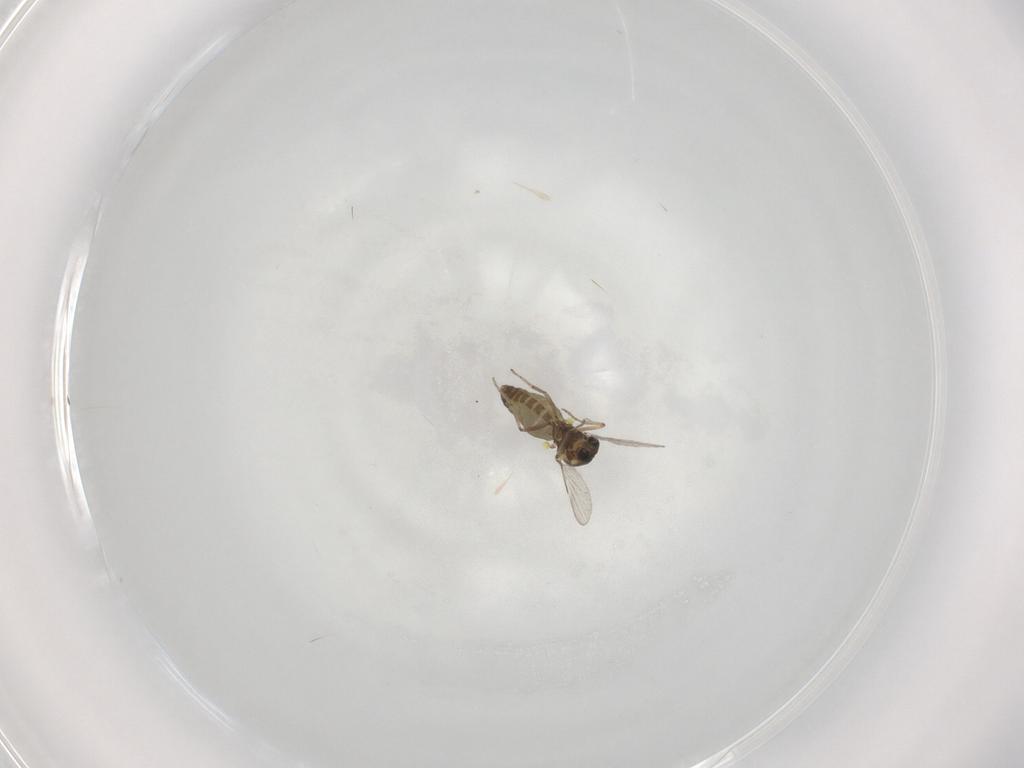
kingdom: Animalia
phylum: Arthropoda
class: Insecta
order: Diptera
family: Ceratopogonidae
